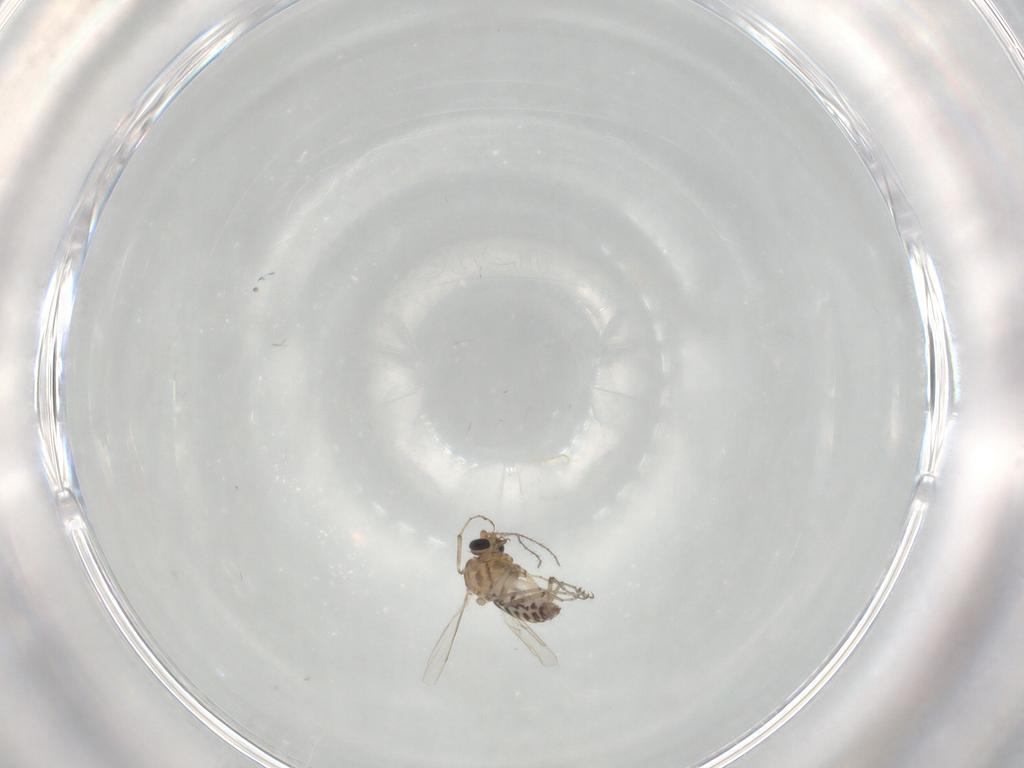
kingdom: Animalia
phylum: Arthropoda
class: Insecta
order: Diptera
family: Ceratopogonidae
